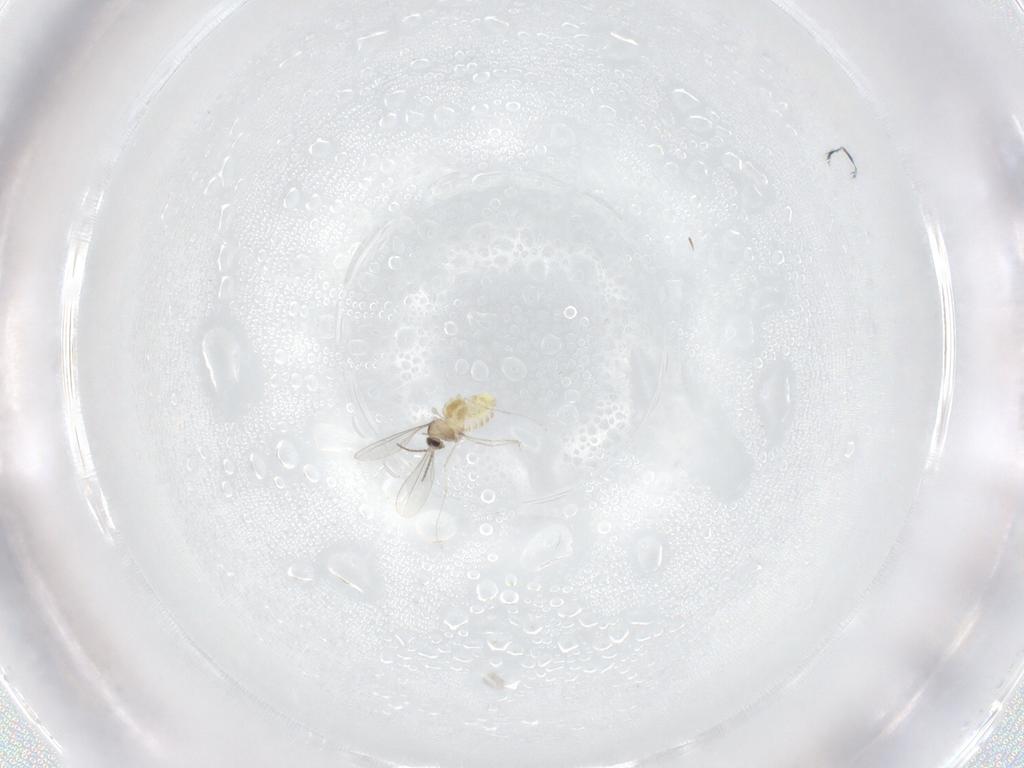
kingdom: Animalia
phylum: Arthropoda
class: Insecta
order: Diptera
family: Cecidomyiidae
